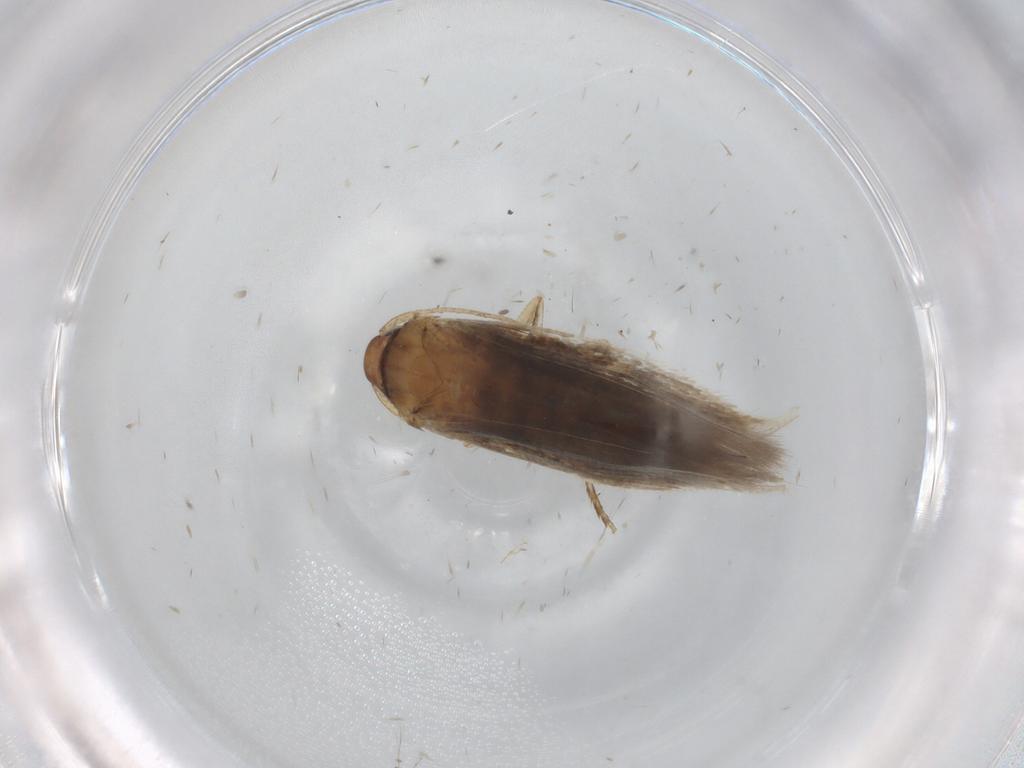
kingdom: Animalia
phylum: Arthropoda
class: Insecta
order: Lepidoptera
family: Cosmopterigidae
